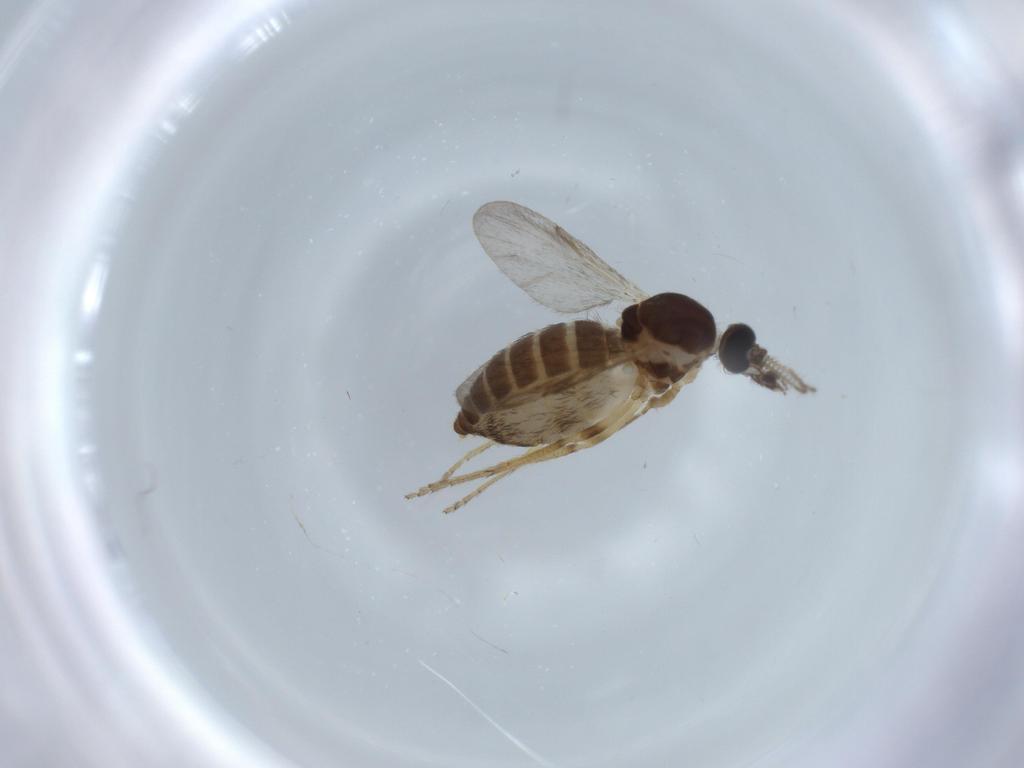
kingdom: Animalia
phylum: Arthropoda
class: Insecta
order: Diptera
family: Ceratopogonidae
